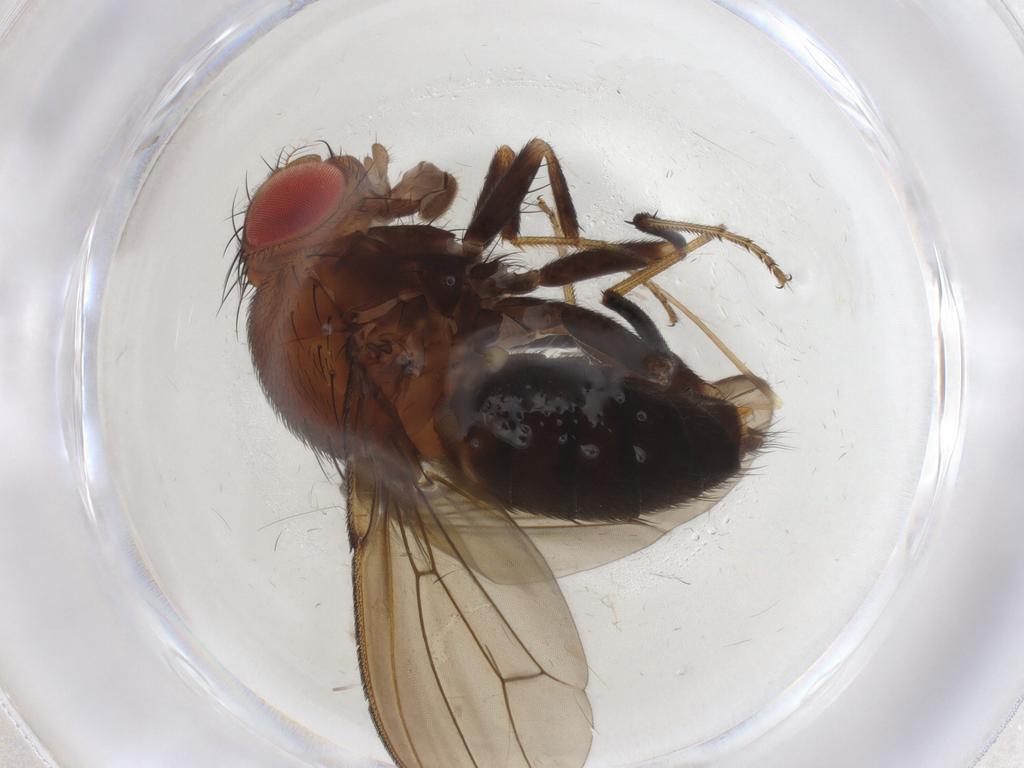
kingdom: Animalia
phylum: Arthropoda
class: Insecta
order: Diptera
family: Drosophilidae
